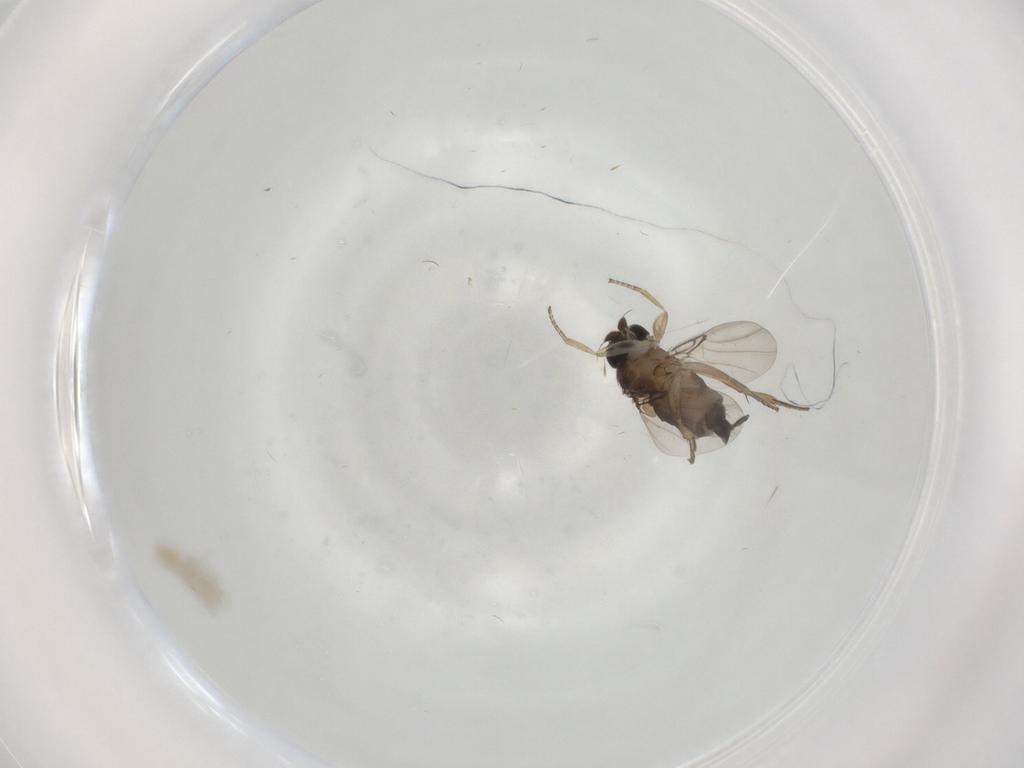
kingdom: Animalia
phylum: Arthropoda
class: Insecta
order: Diptera
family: Phoridae
